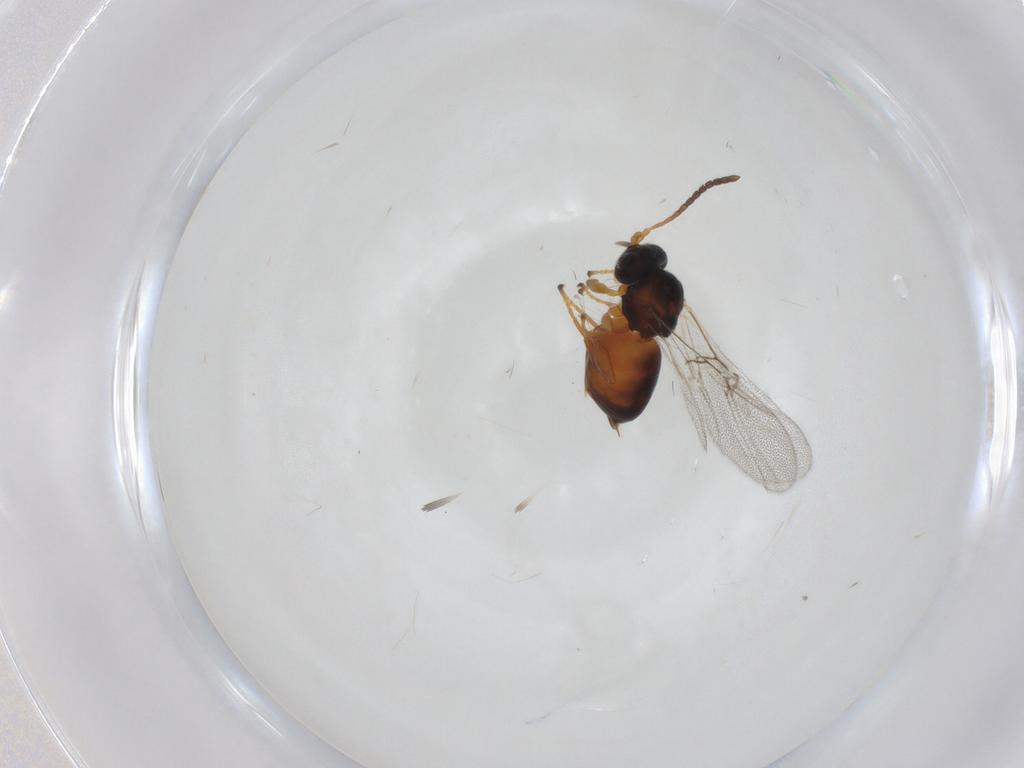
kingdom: Animalia
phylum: Arthropoda
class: Insecta
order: Hymenoptera
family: Cynipidae
